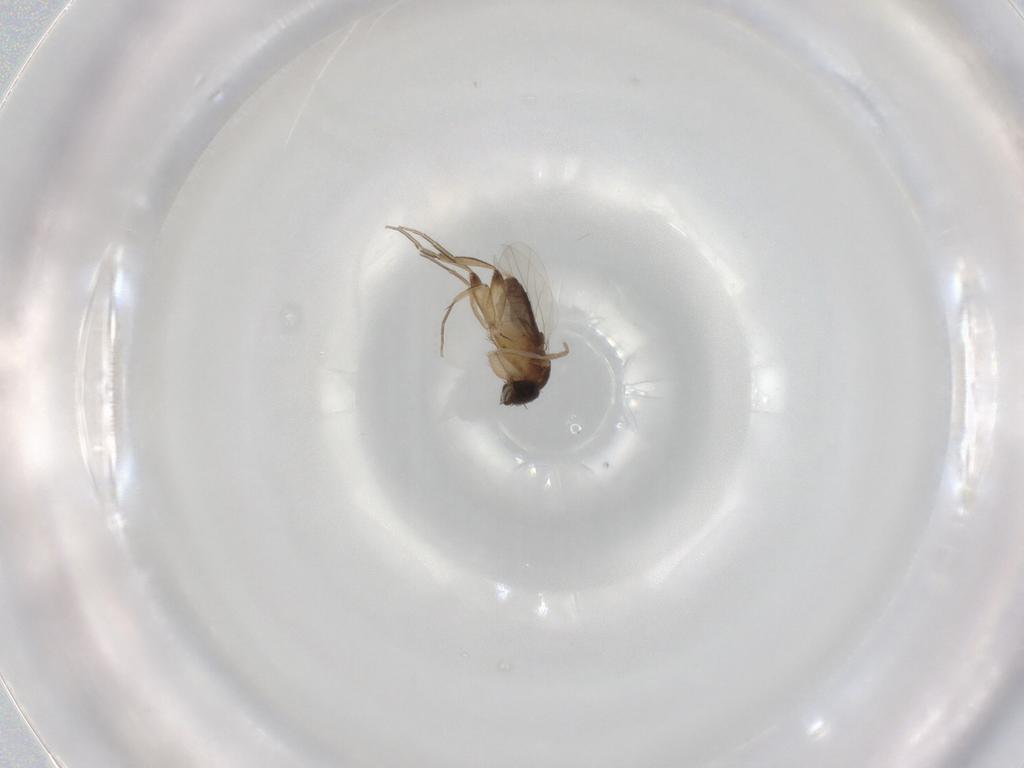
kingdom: Animalia
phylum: Arthropoda
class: Insecta
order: Diptera
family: Phoridae
